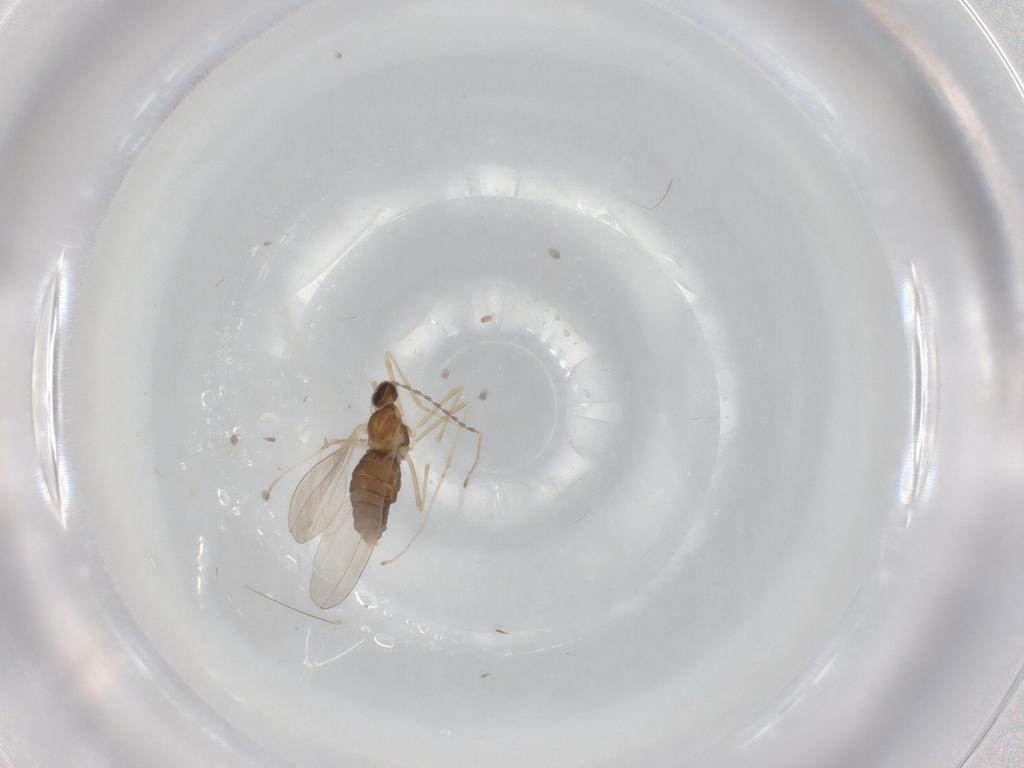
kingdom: Animalia
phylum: Arthropoda
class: Insecta
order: Diptera
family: Cecidomyiidae
